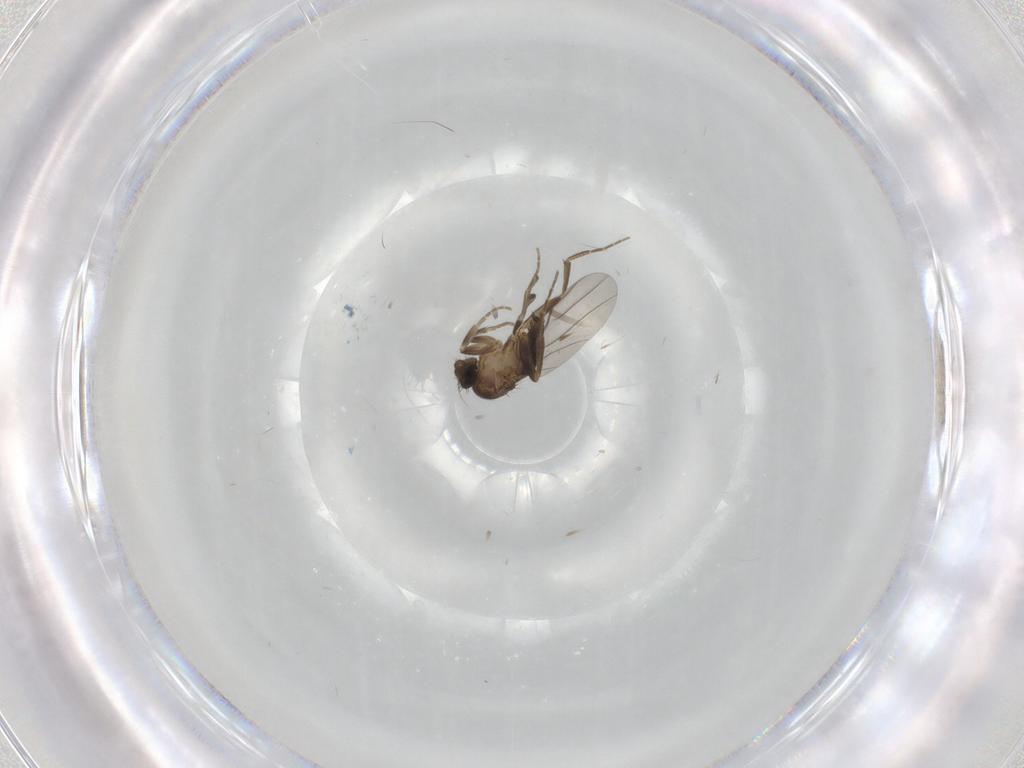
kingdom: Animalia
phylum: Arthropoda
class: Insecta
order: Diptera
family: Phoridae
